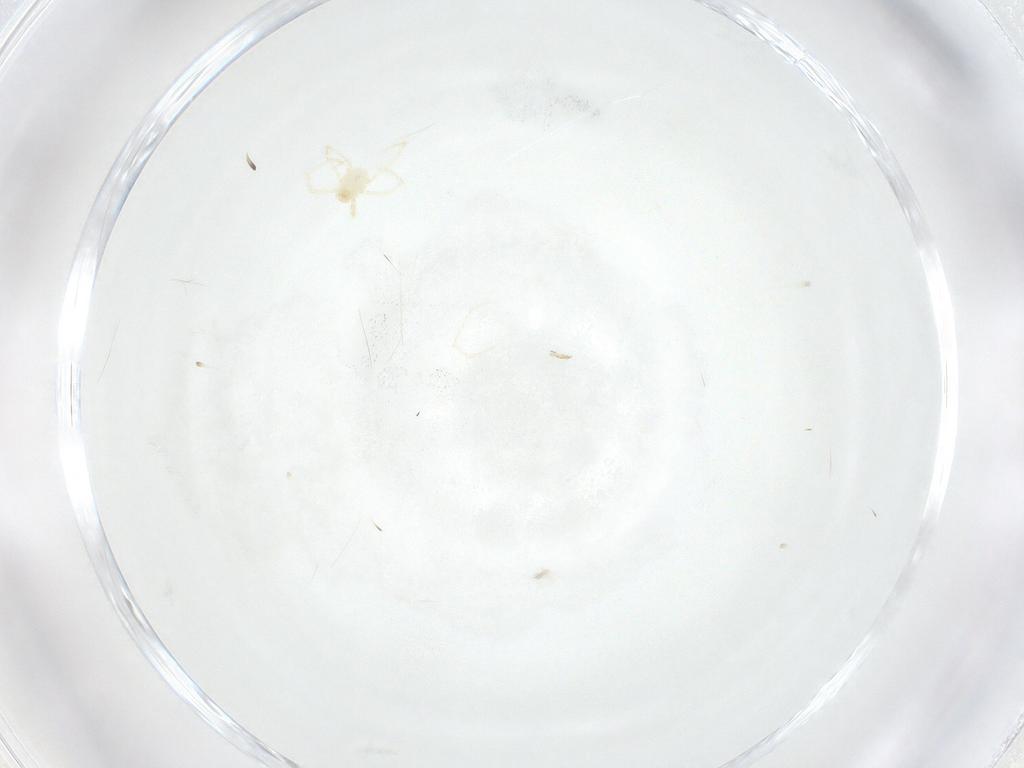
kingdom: Animalia
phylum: Arthropoda
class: Arachnida
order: Trombidiformes
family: Erythraeidae
